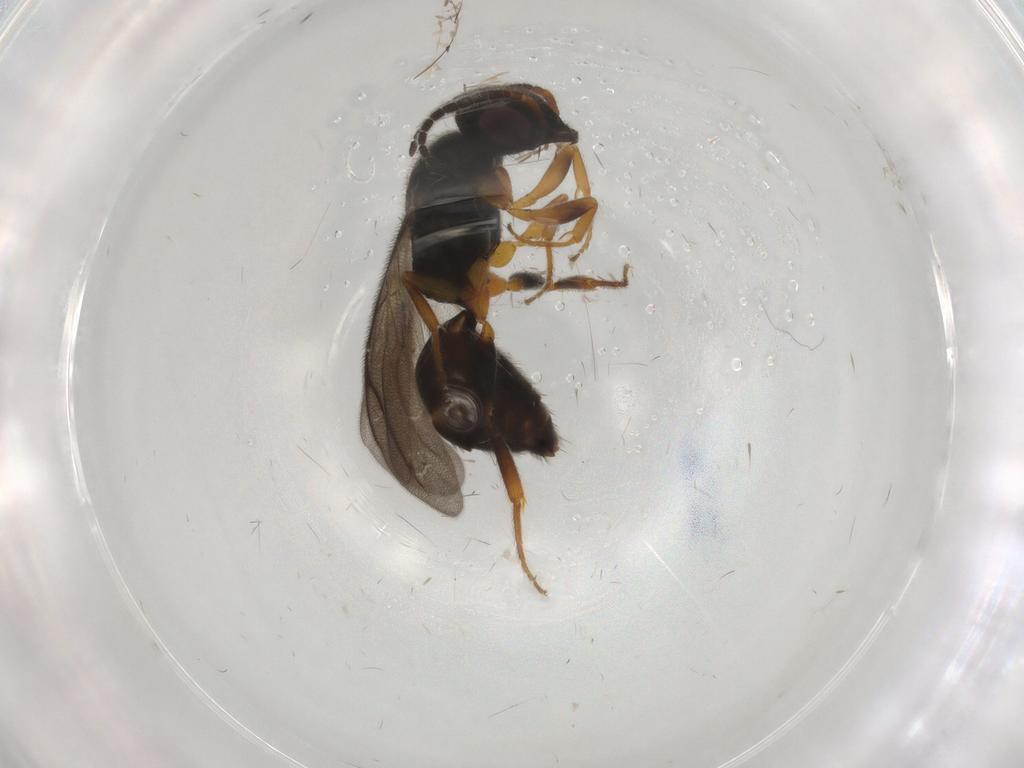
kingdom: Animalia
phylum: Arthropoda
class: Insecta
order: Hymenoptera
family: Bethylidae
